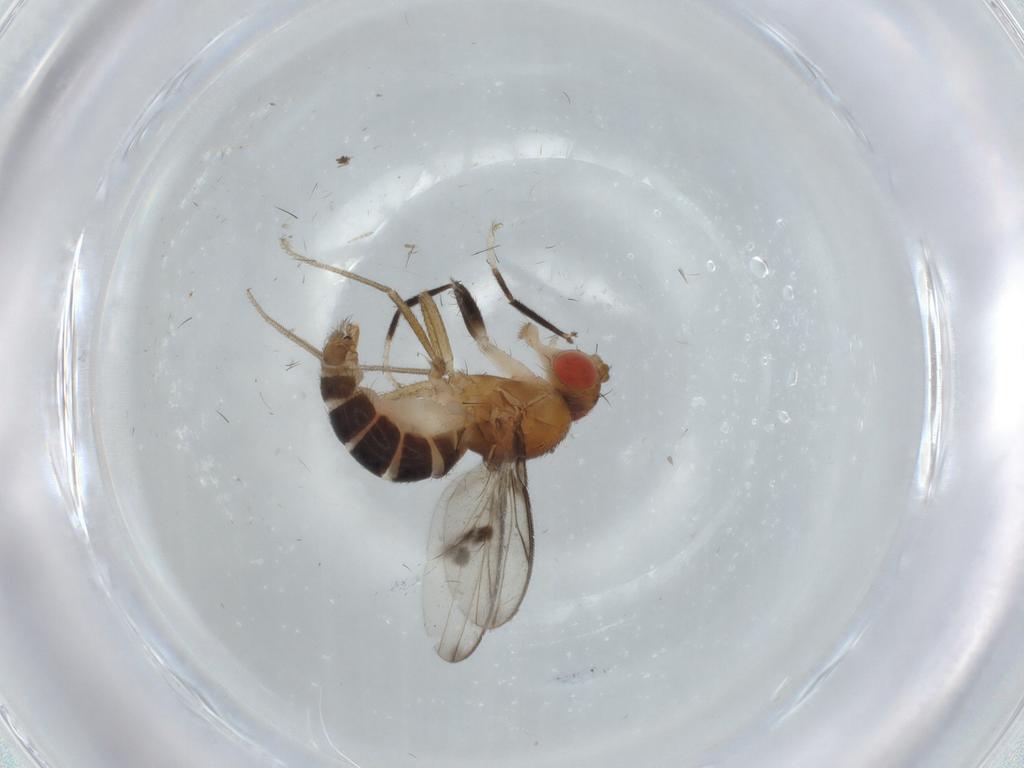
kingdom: Animalia
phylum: Arthropoda
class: Insecta
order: Diptera
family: Drosophilidae
